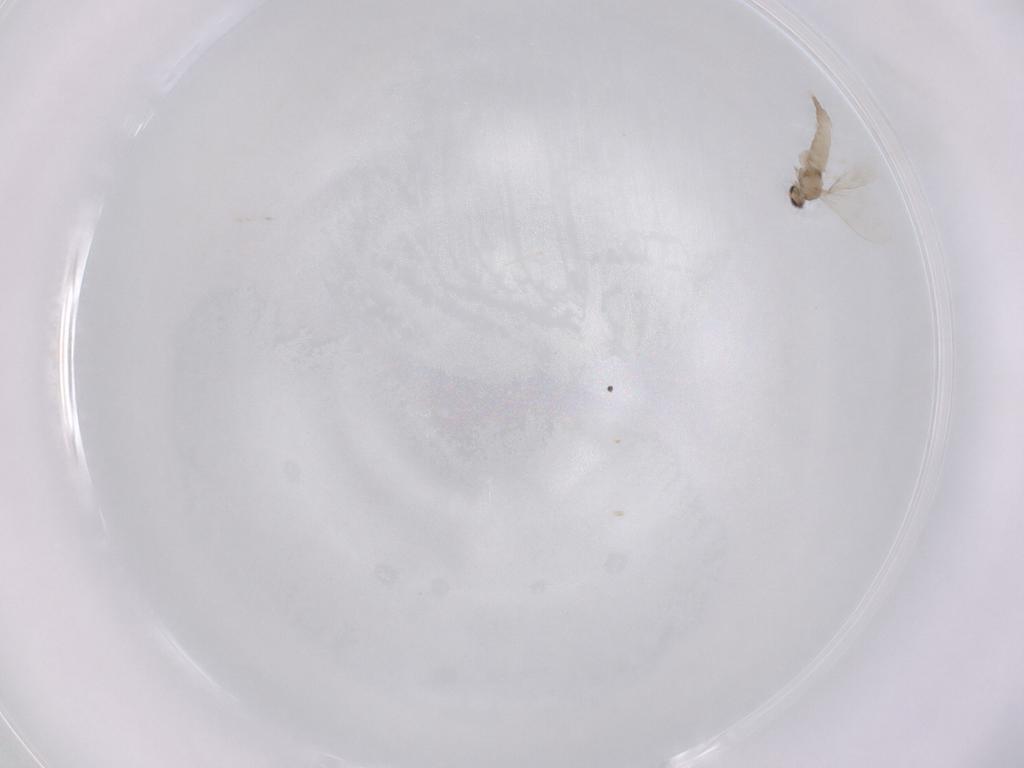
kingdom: Animalia
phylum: Arthropoda
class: Insecta
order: Diptera
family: Cecidomyiidae
